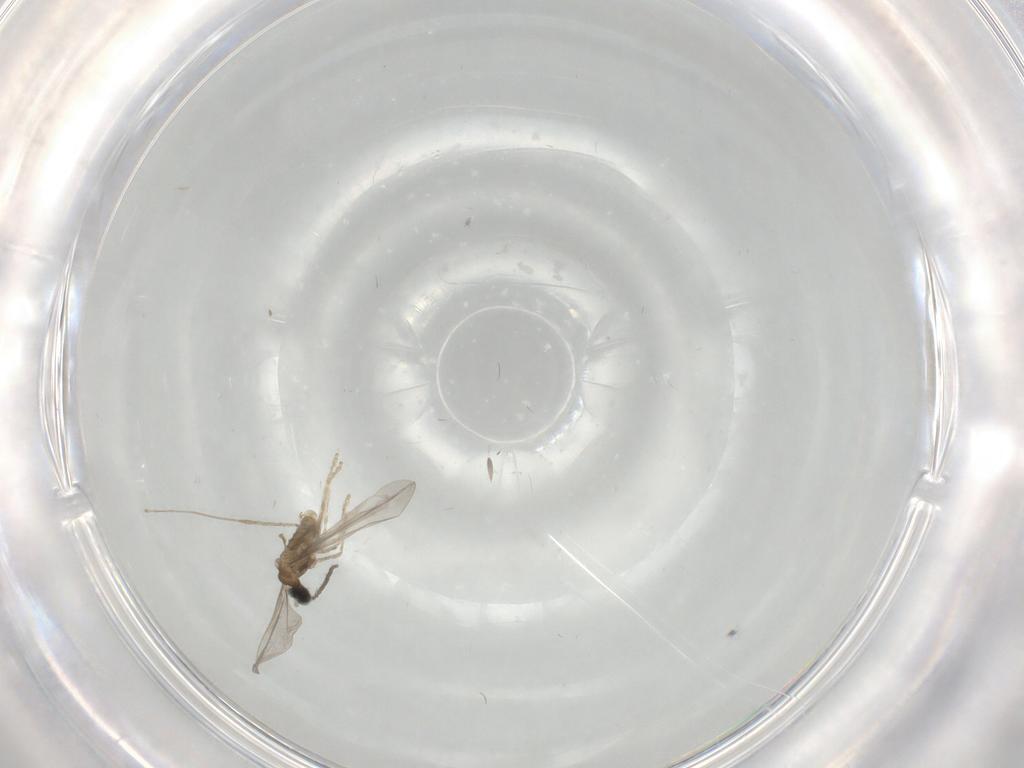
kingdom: Animalia
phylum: Arthropoda
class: Insecta
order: Diptera
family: Cecidomyiidae
